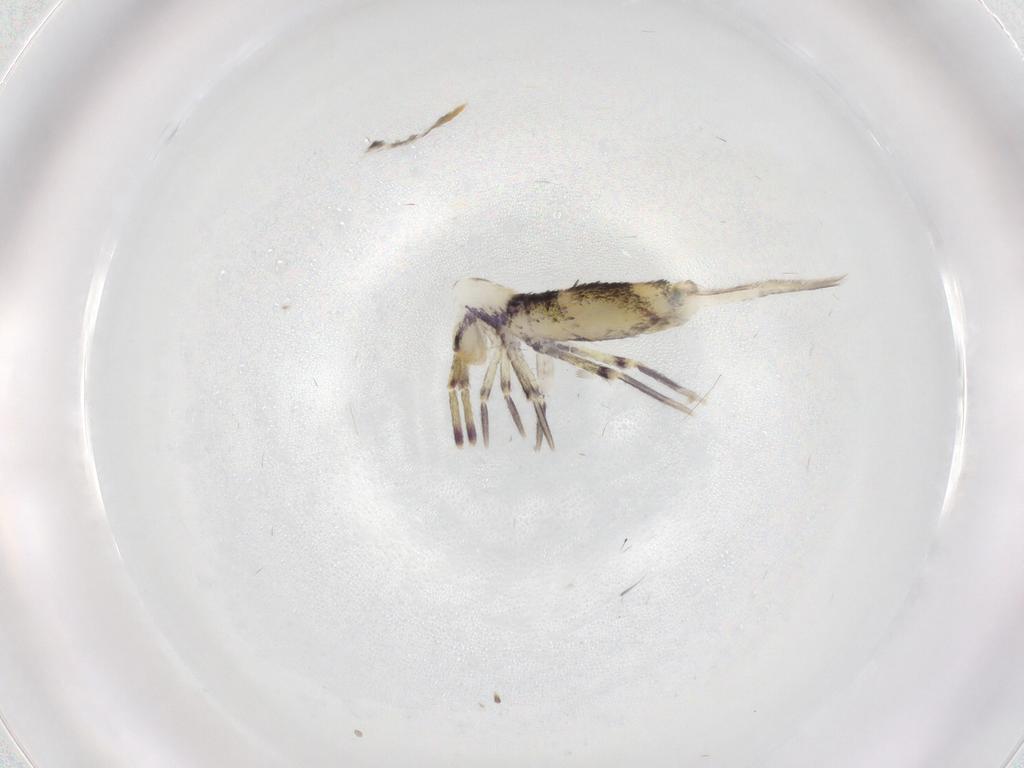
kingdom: Animalia
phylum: Arthropoda
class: Collembola
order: Entomobryomorpha
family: Entomobryidae
